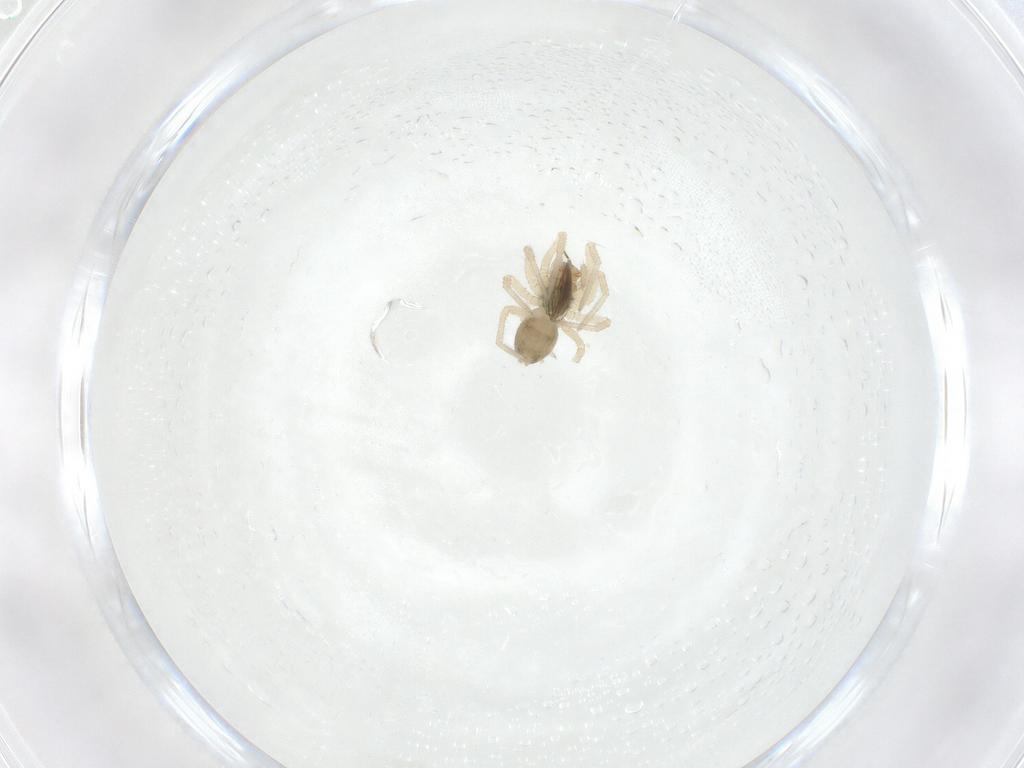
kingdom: Animalia
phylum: Arthropoda
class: Arachnida
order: Araneae
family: Linyphiidae
